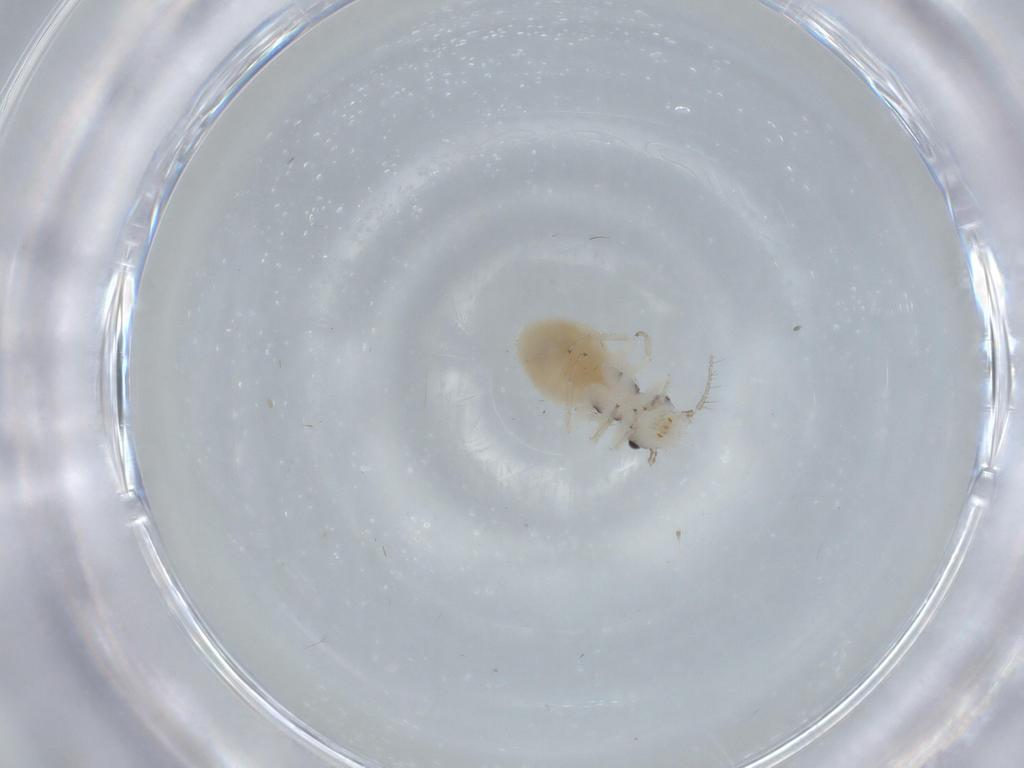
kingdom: Animalia
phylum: Arthropoda
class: Insecta
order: Psocodea
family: Pseudocaeciliidae
